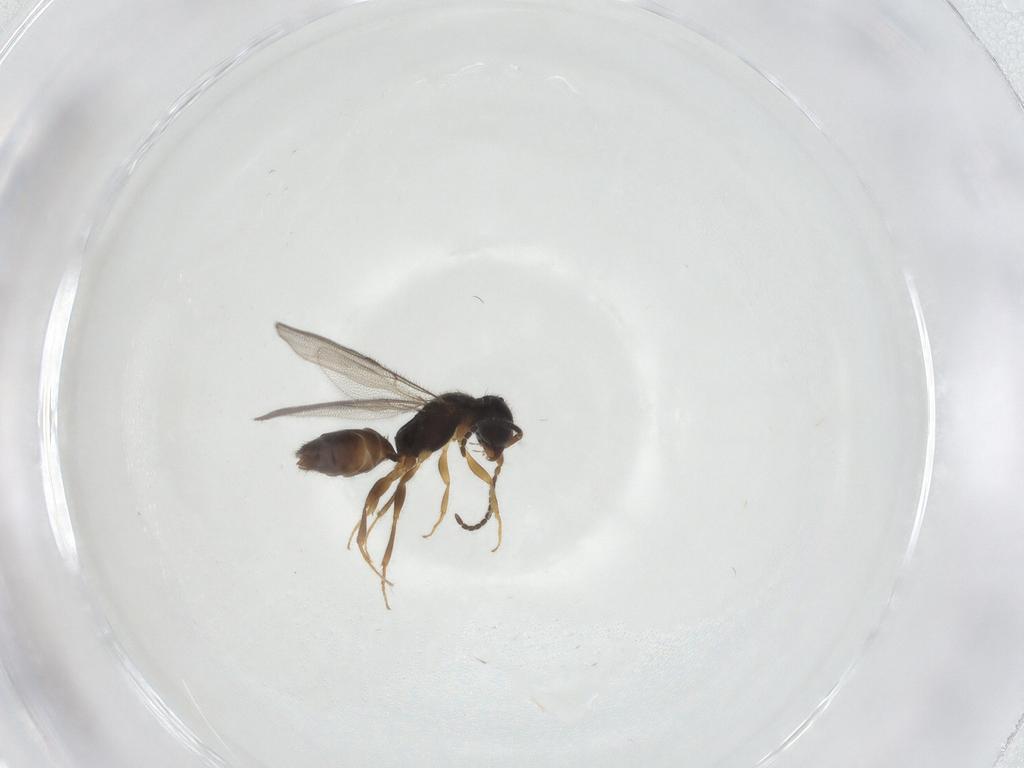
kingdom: Animalia
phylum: Arthropoda
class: Insecta
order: Hymenoptera
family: Bethylidae
